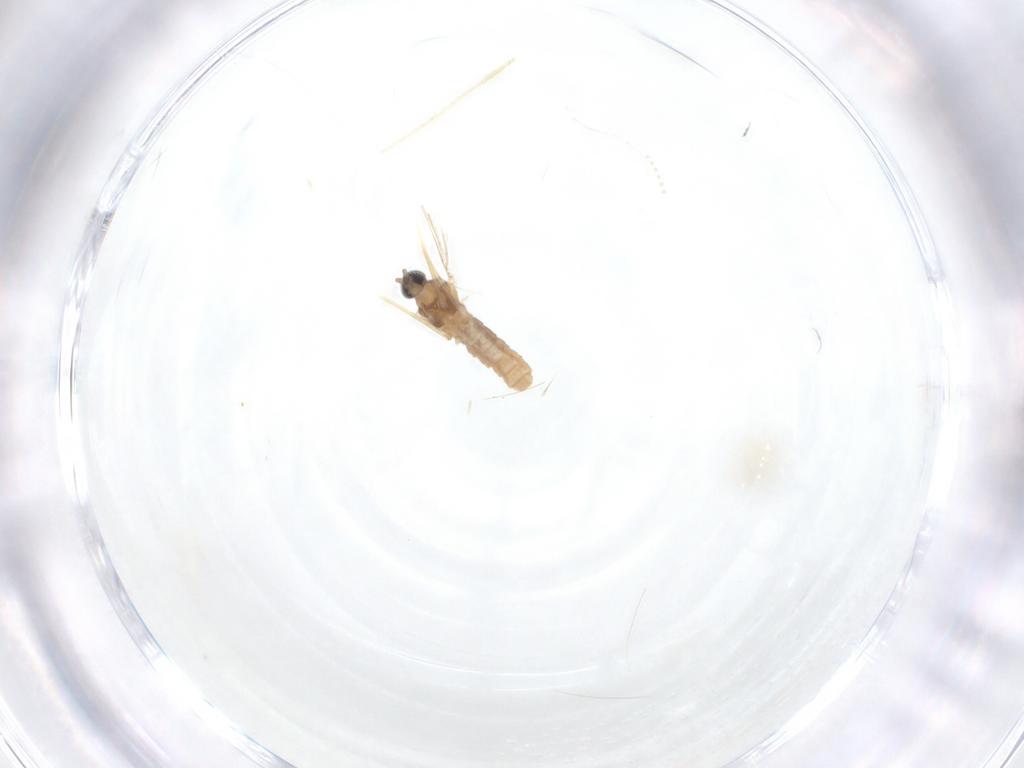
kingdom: Animalia
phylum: Arthropoda
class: Insecta
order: Diptera
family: Cecidomyiidae
